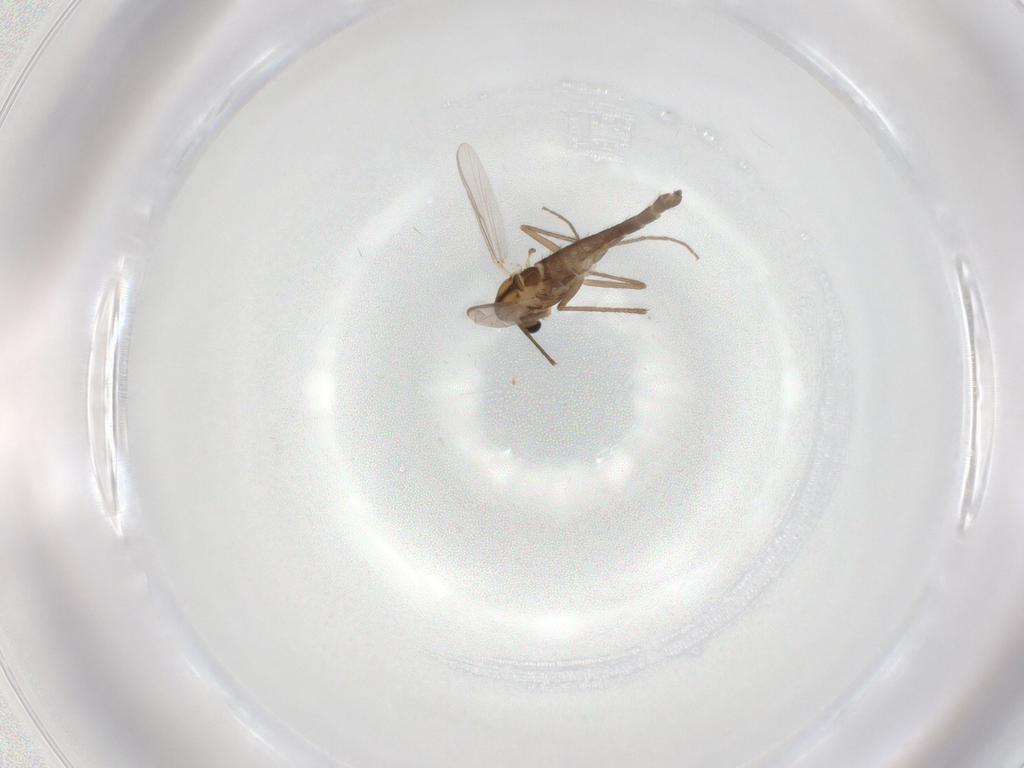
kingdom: Animalia
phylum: Arthropoda
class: Insecta
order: Diptera
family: Chironomidae
